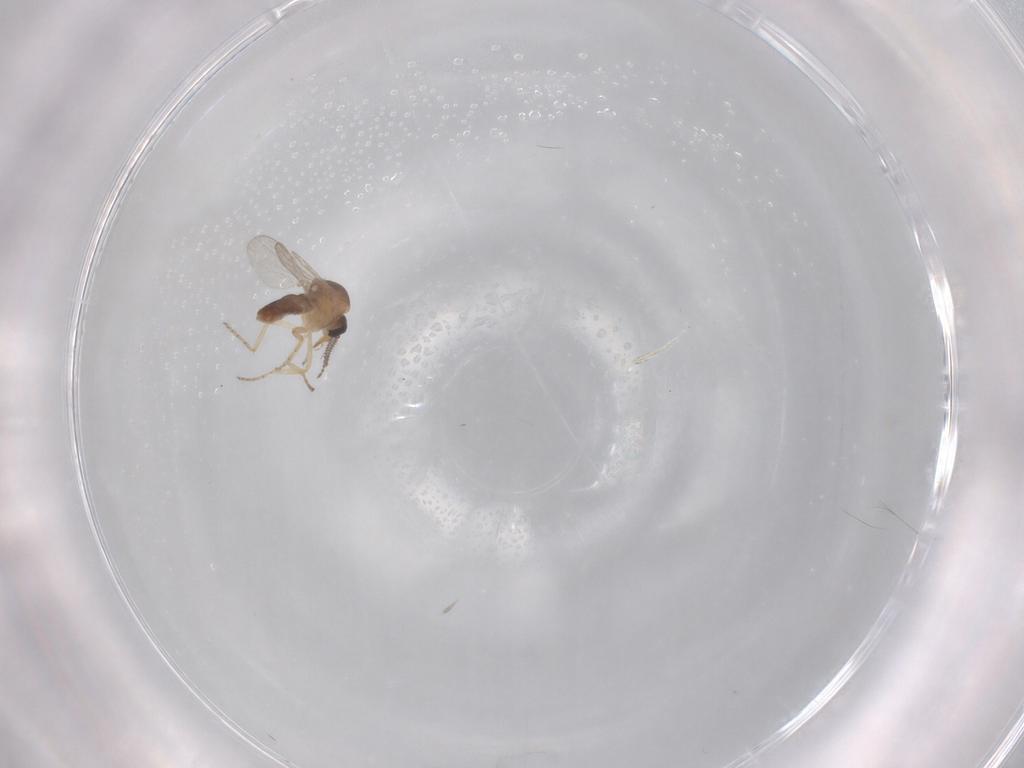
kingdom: Animalia
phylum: Arthropoda
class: Insecta
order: Diptera
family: Ceratopogonidae
